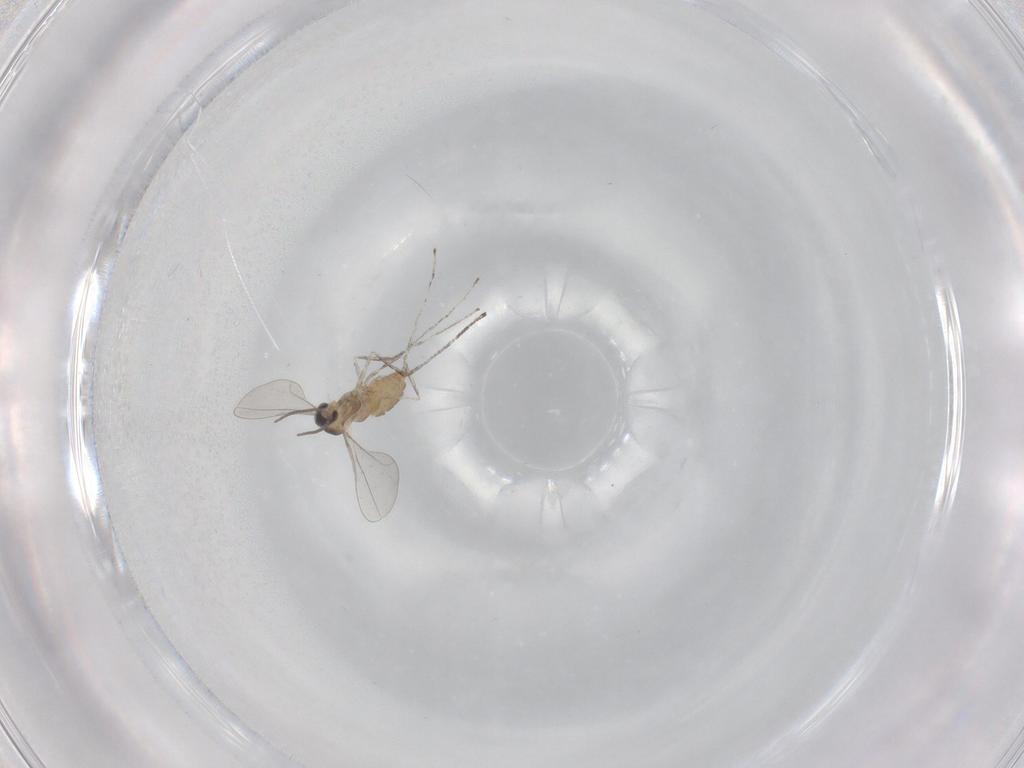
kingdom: Animalia
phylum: Arthropoda
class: Insecta
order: Diptera
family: Cecidomyiidae
